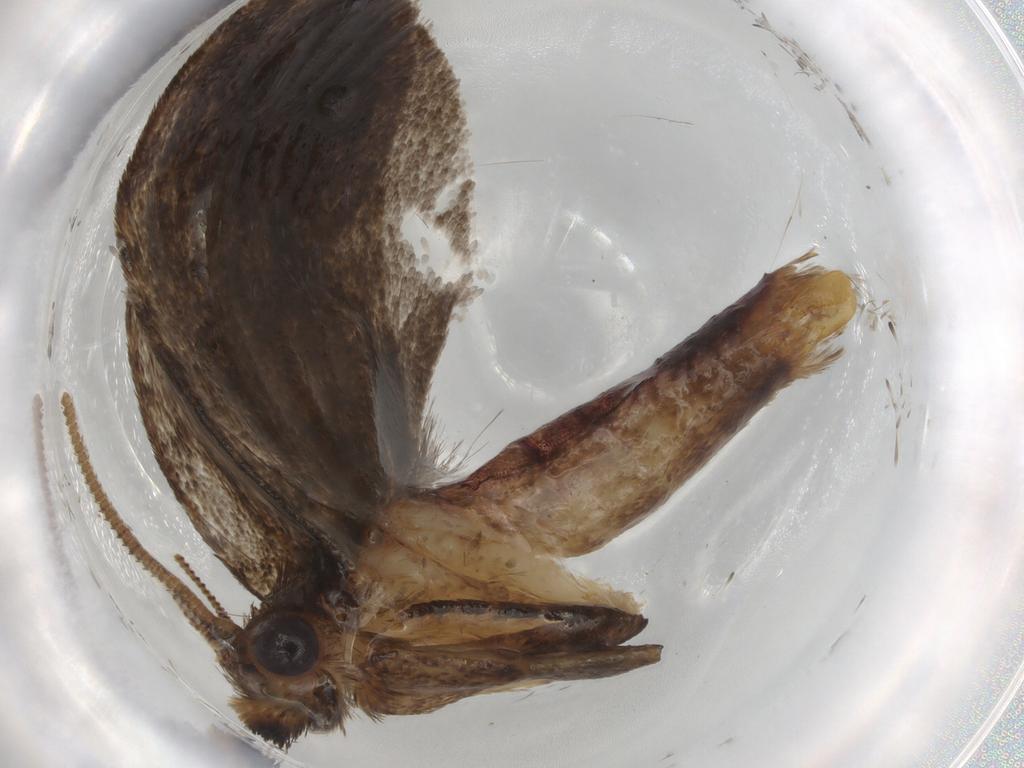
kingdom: Animalia
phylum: Arthropoda
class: Insecta
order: Lepidoptera
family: Tineidae
